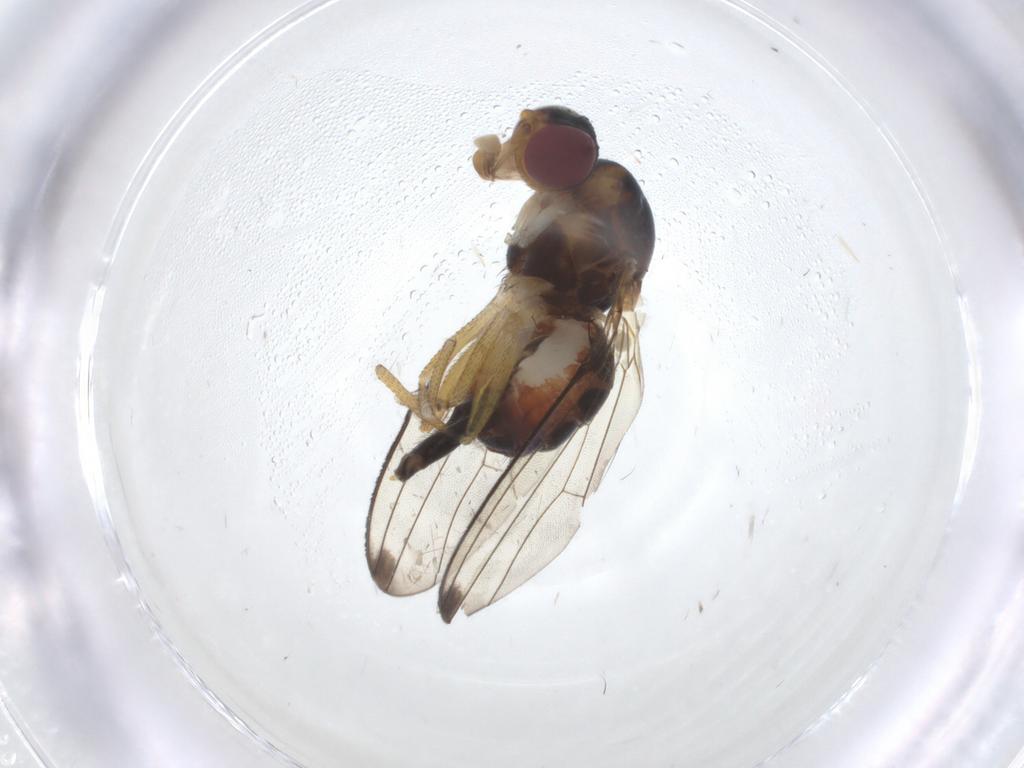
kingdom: Animalia
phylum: Arthropoda
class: Insecta
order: Diptera
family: Pallopteridae
